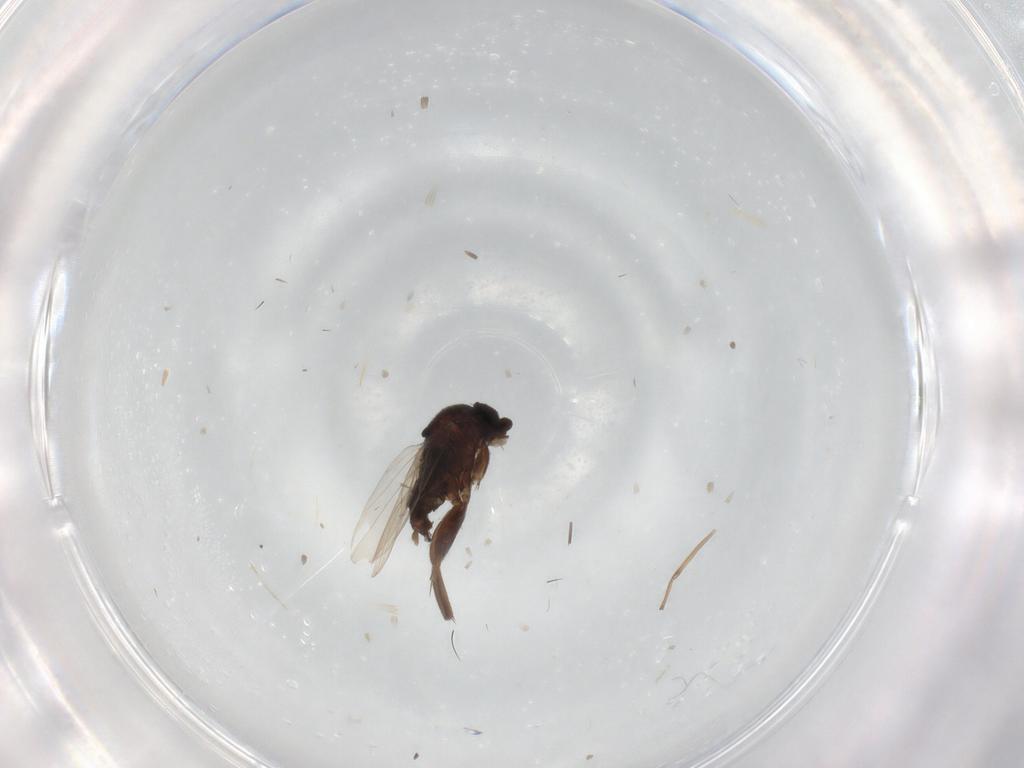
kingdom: Animalia
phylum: Arthropoda
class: Insecta
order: Diptera
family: Chironomidae
